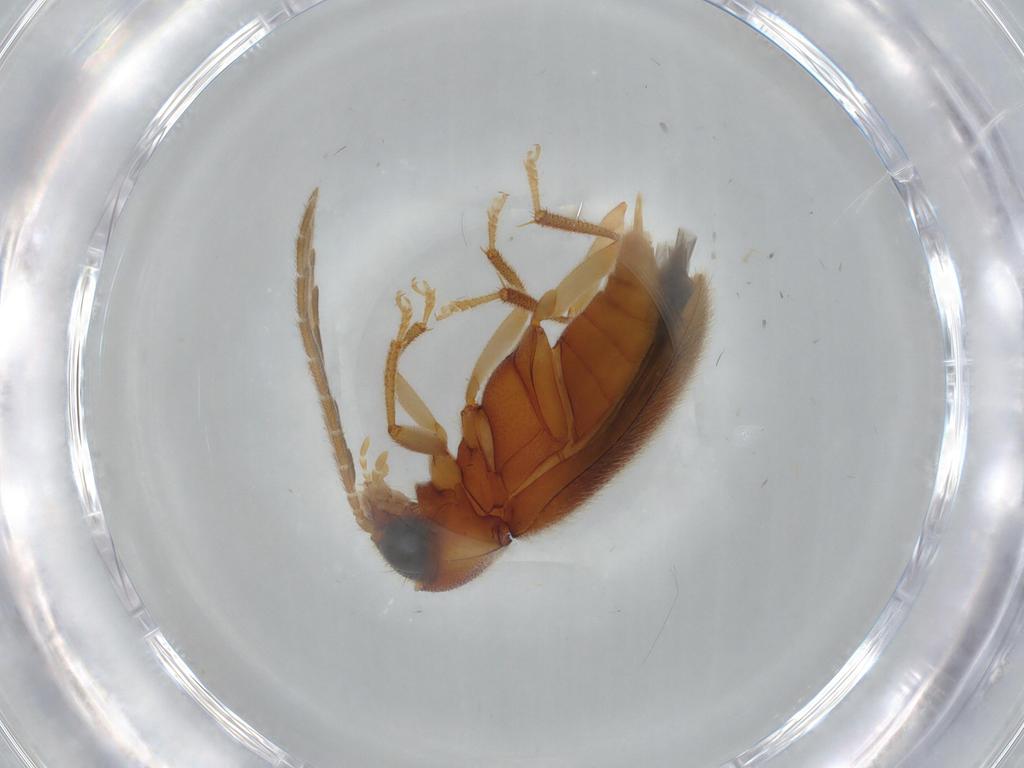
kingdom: Animalia
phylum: Arthropoda
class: Insecta
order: Coleoptera
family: Ptilodactylidae
